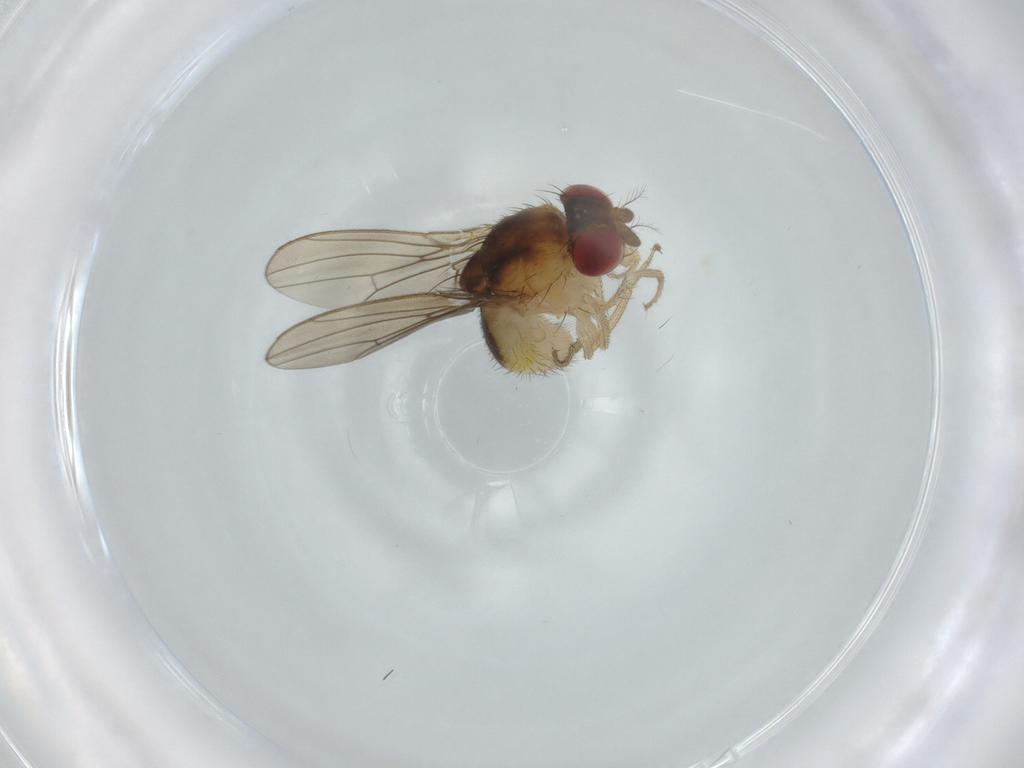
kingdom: Animalia
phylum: Arthropoda
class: Insecta
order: Diptera
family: Drosophilidae
